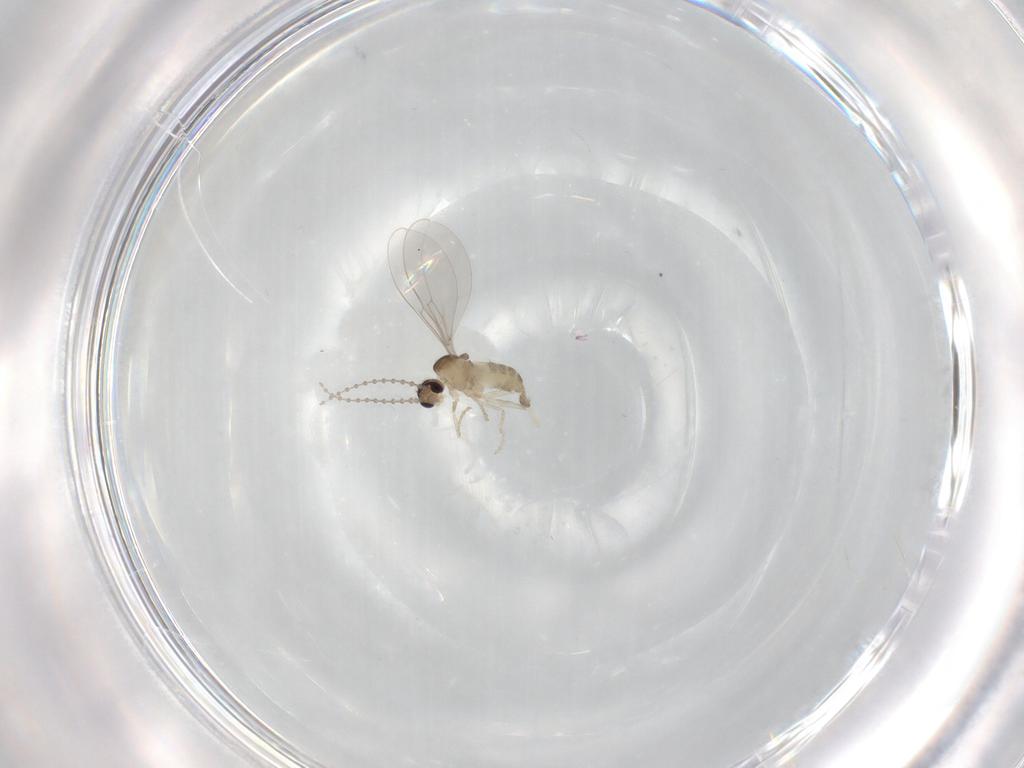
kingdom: Animalia
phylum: Arthropoda
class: Insecta
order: Diptera
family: Cecidomyiidae
